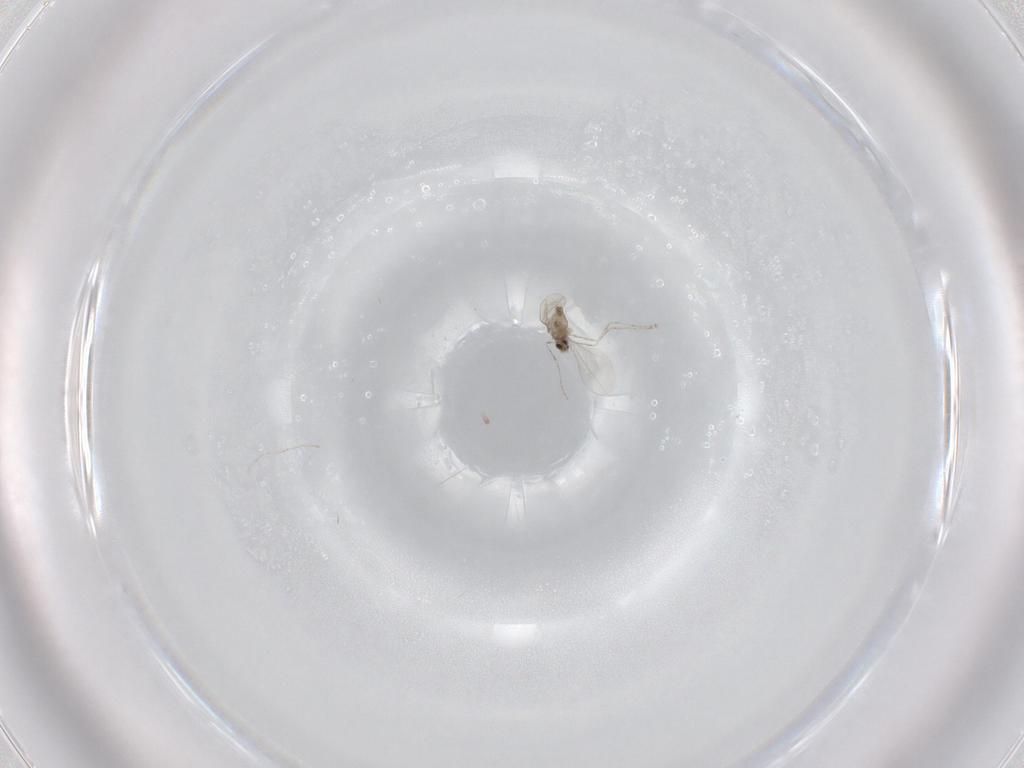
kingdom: Animalia
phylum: Arthropoda
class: Insecta
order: Diptera
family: Cecidomyiidae
